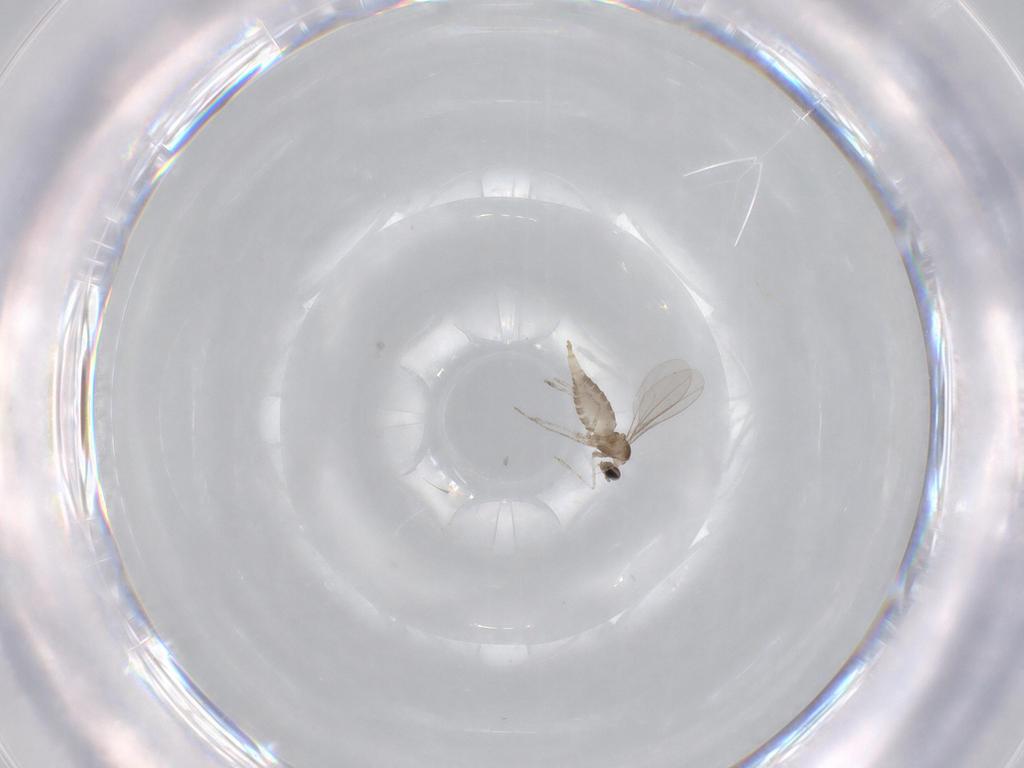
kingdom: Animalia
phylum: Arthropoda
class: Insecta
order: Diptera
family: Cecidomyiidae
